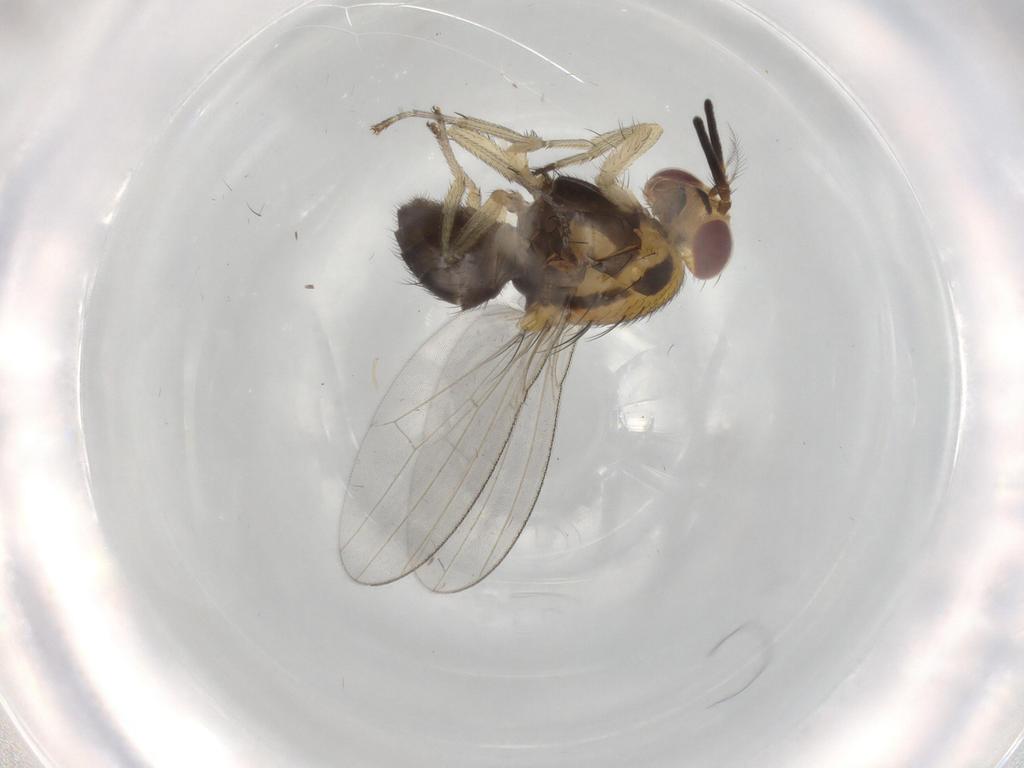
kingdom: Animalia
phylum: Arthropoda
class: Insecta
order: Diptera
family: Lauxaniidae
